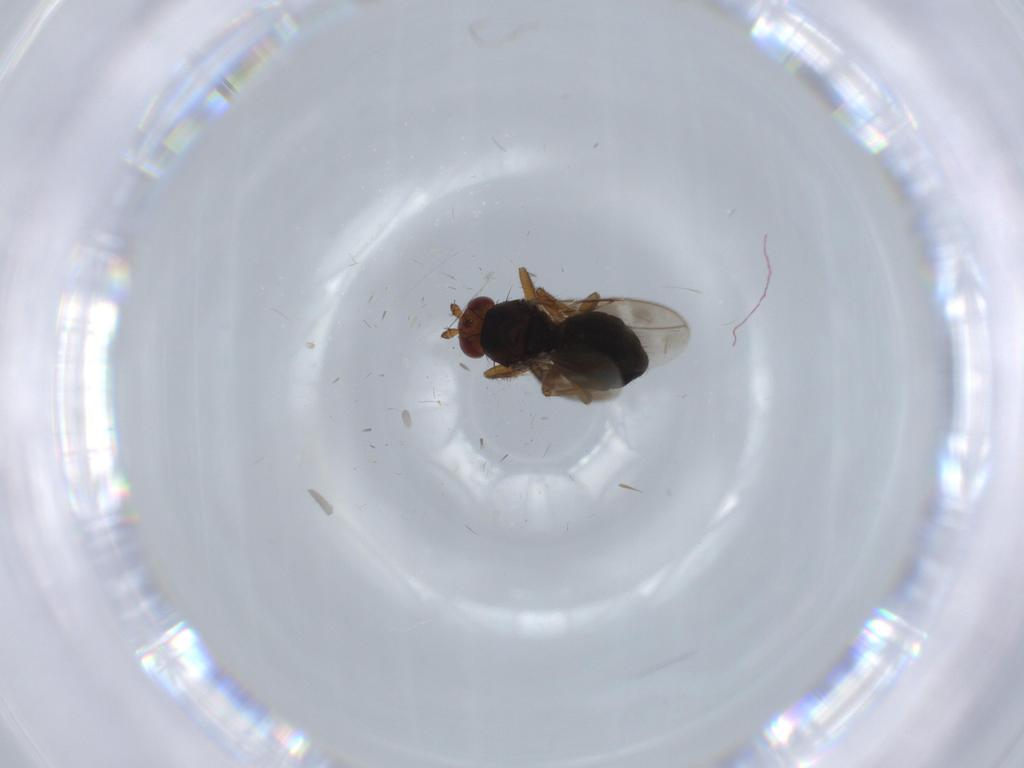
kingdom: Animalia
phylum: Arthropoda
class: Insecta
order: Diptera
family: Sphaeroceridae
